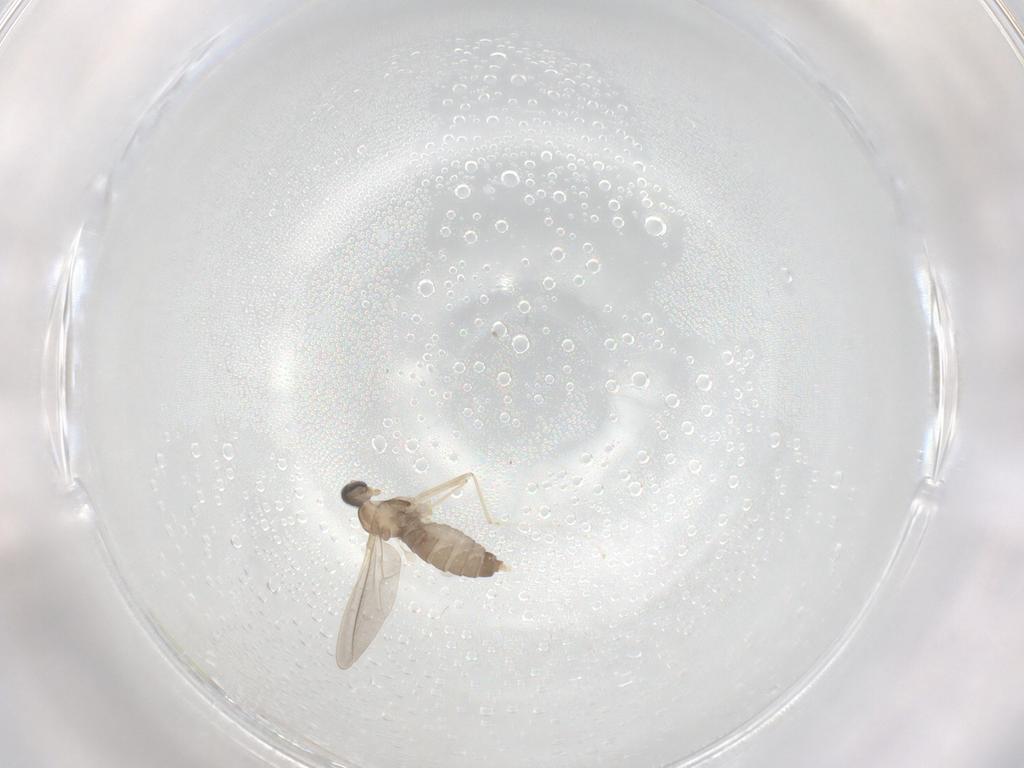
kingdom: Animalia
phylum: Arthropoda
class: Insecta
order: Diptera
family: Cecidomyiidae
